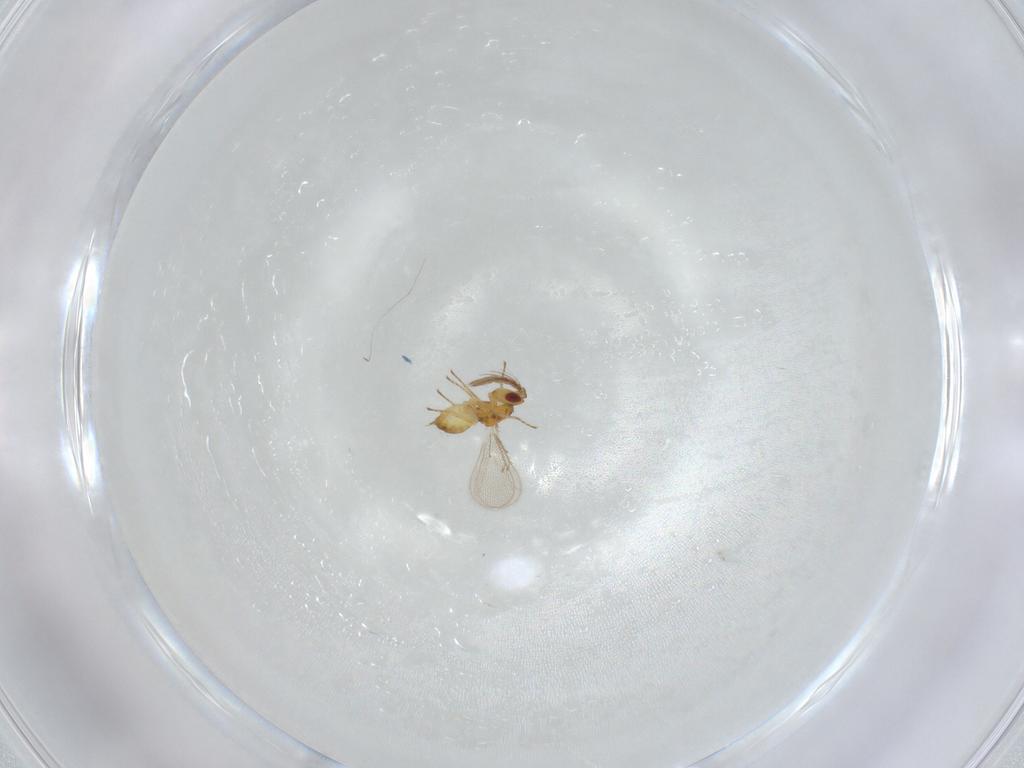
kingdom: Animalia
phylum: Arthropoda
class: Insecta
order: Hymenoptera
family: Eulophidae
